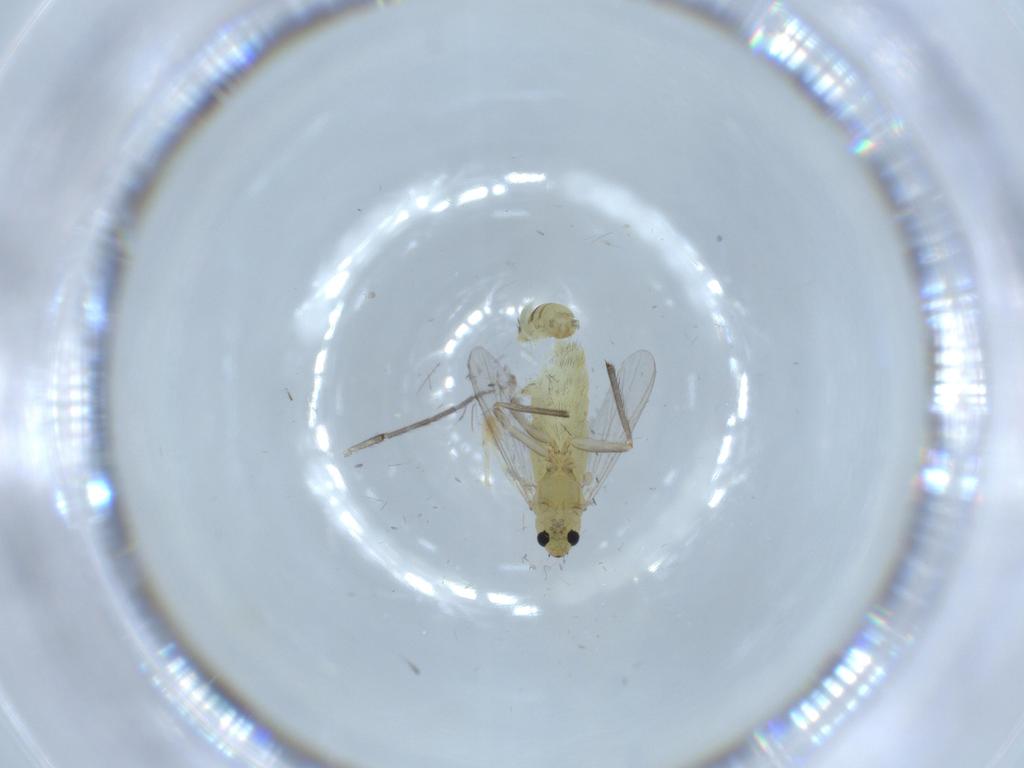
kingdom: Animalia
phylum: Arthropoda
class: Insecta
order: Diptera
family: Chironomidae
